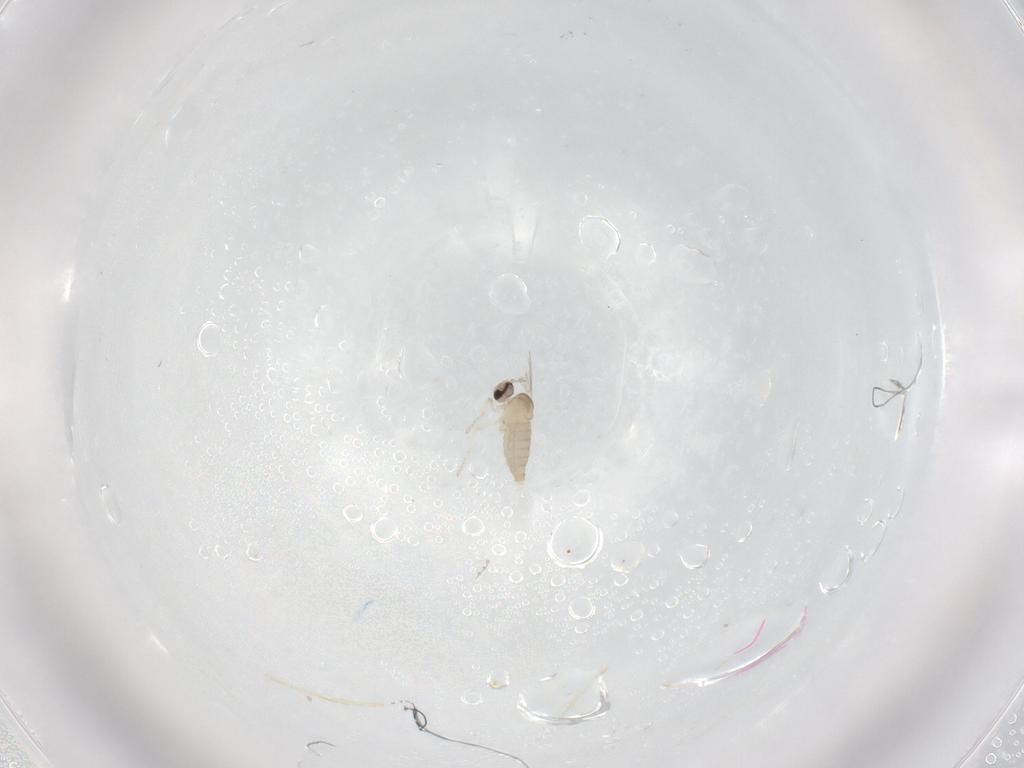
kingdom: Animalia
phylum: Arthropoda
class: Insecta
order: Diptera
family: Cecidomyiidae
